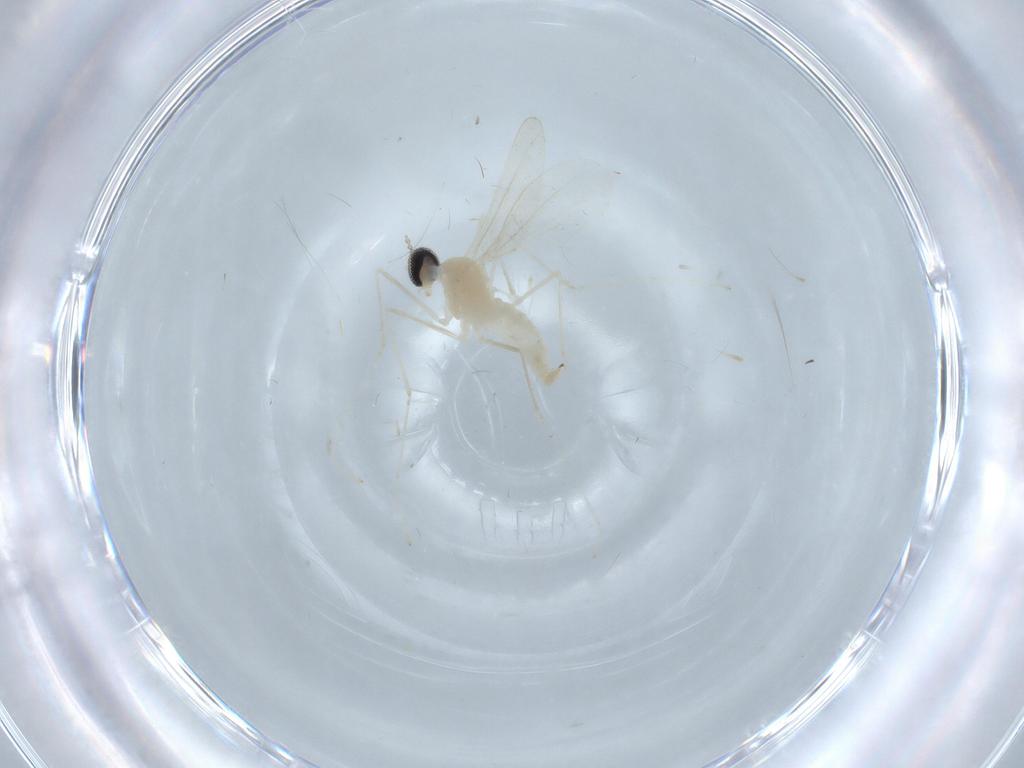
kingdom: Animalia
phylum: Arthropoda
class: Insecta
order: Diptera
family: Cecidomyiidae
